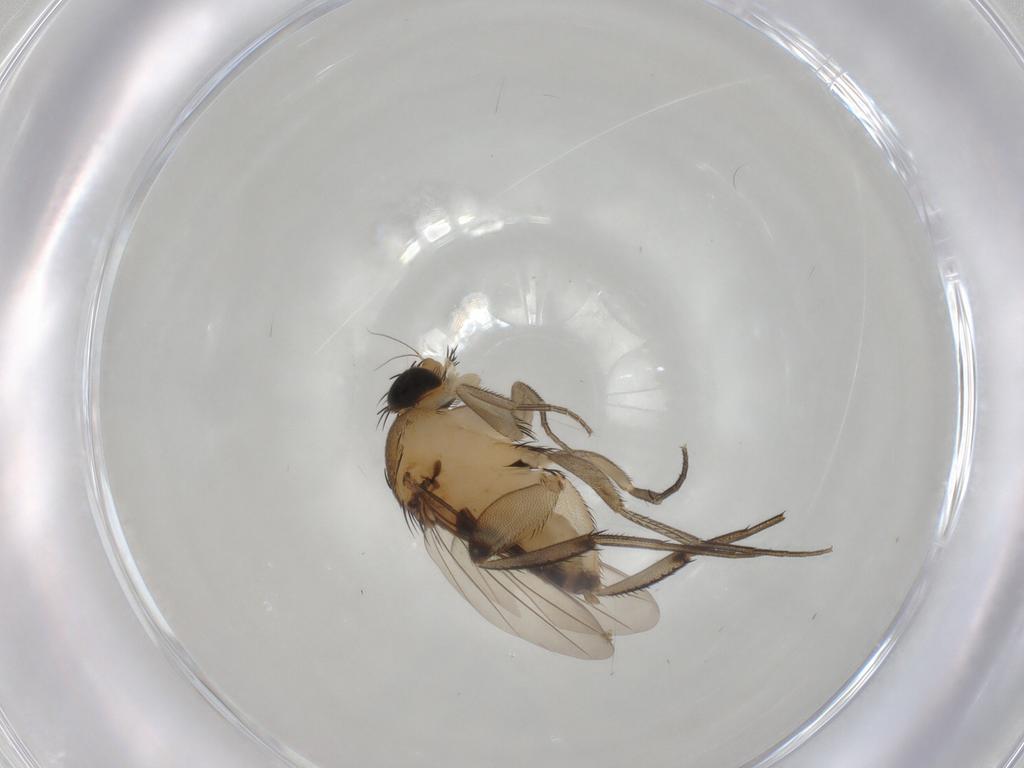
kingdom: Animalia
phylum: Arthropoda
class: Insecta
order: Diptera
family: Phoridae
